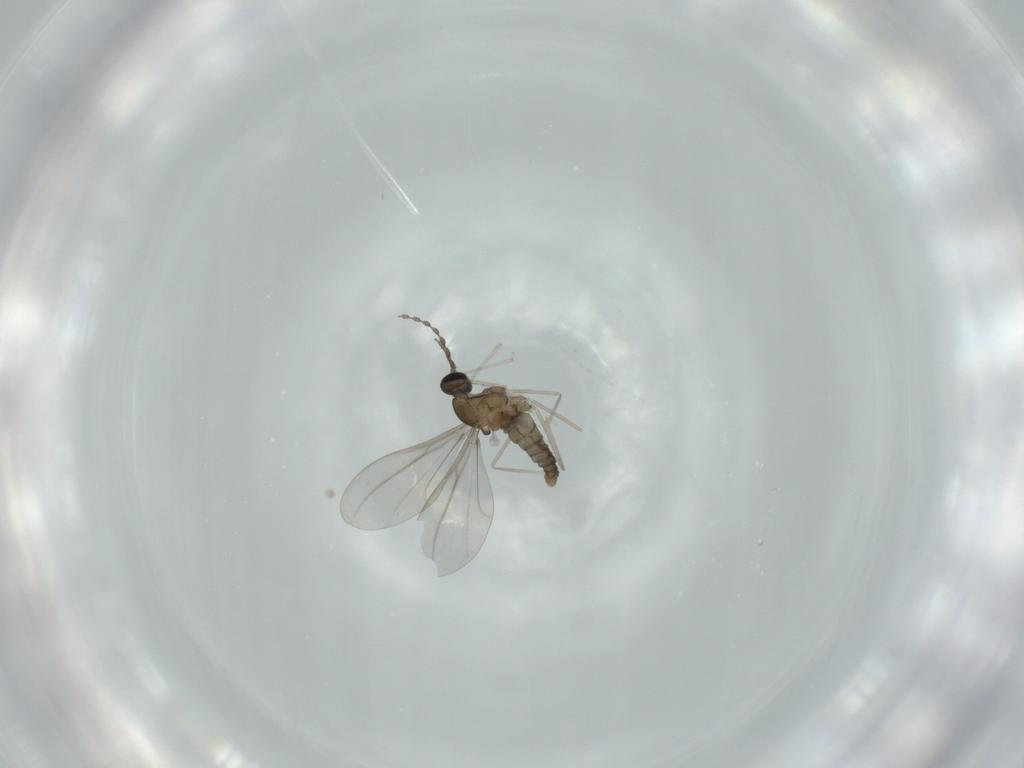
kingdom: Animalia
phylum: Arthropoda
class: Insecta
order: Diptera
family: Cecidomyiidae
